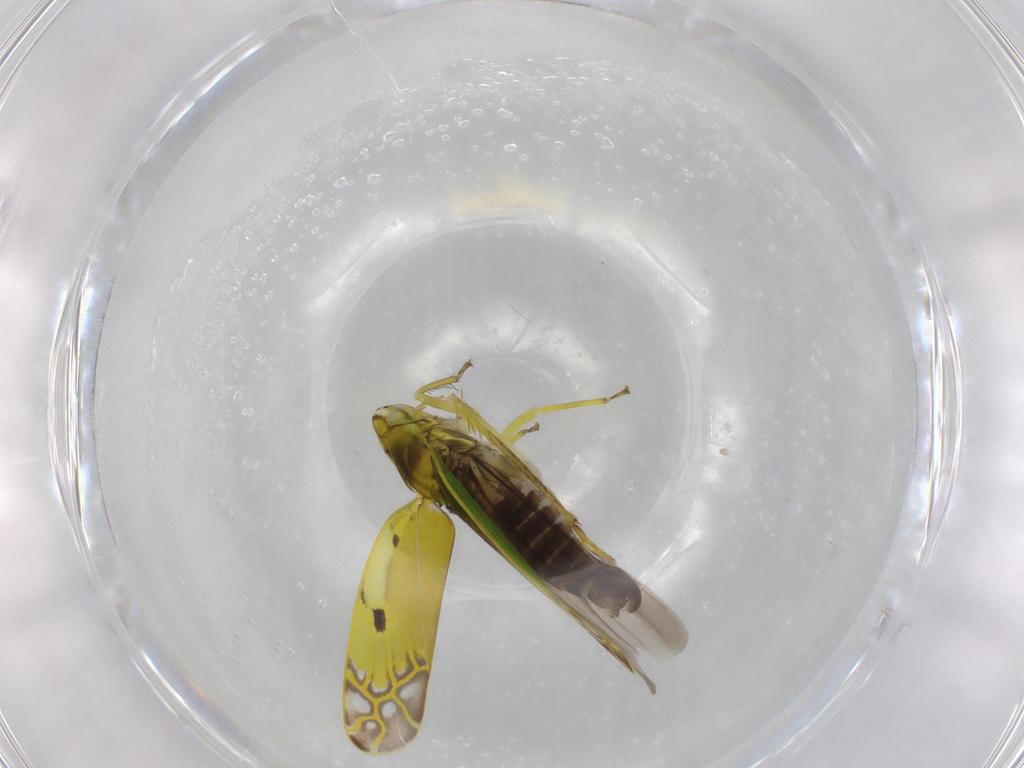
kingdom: Animalia
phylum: Arthropoda
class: Insecta
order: Hemiptera
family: Cicadellidae
